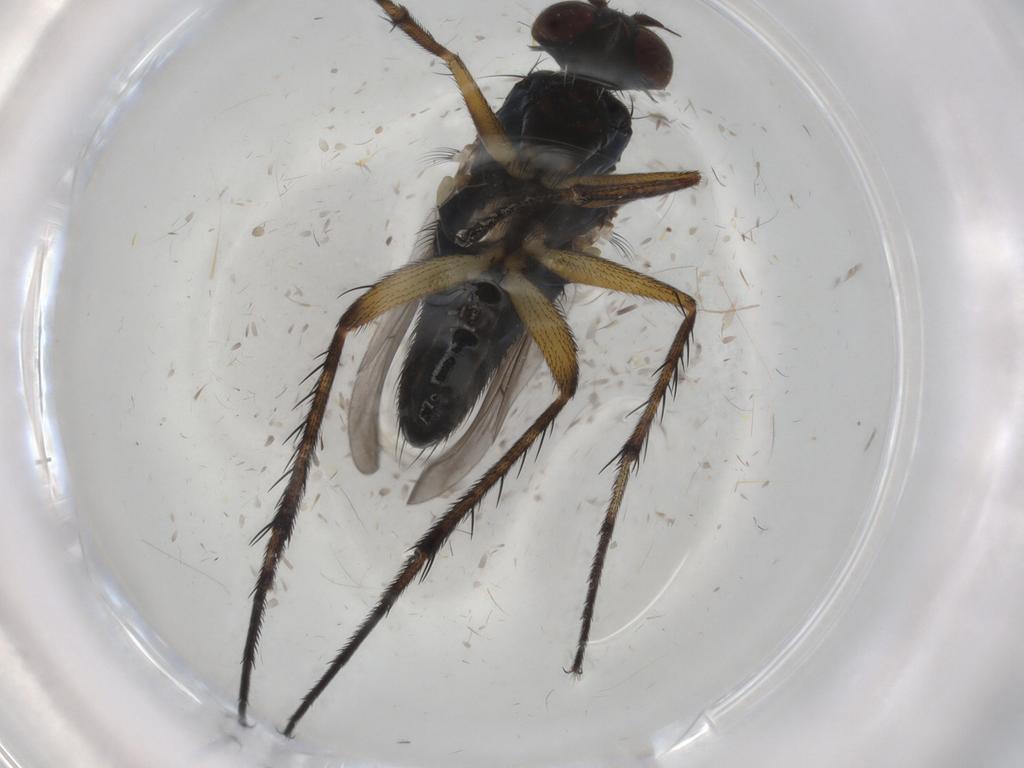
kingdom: Animalia
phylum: Arthropoda
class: Insecta
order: Diptera
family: Dolichopodidae
